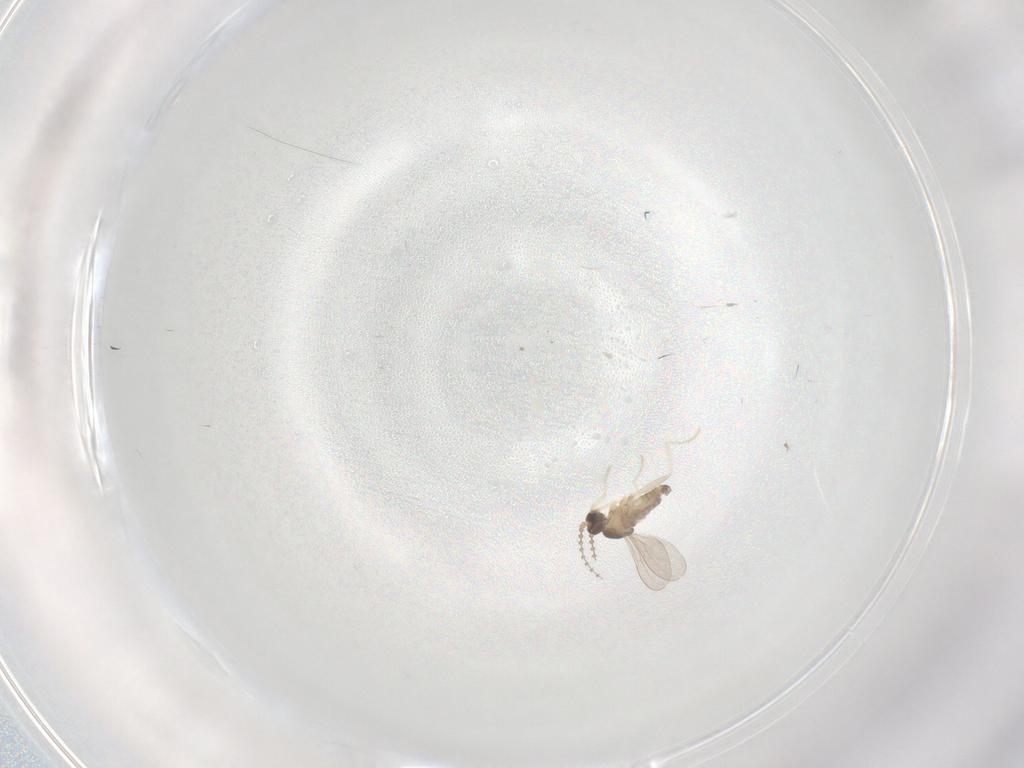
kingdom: Animalia
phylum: Arthropoda
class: Insecta
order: Diptera
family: Cecidomyiidae
